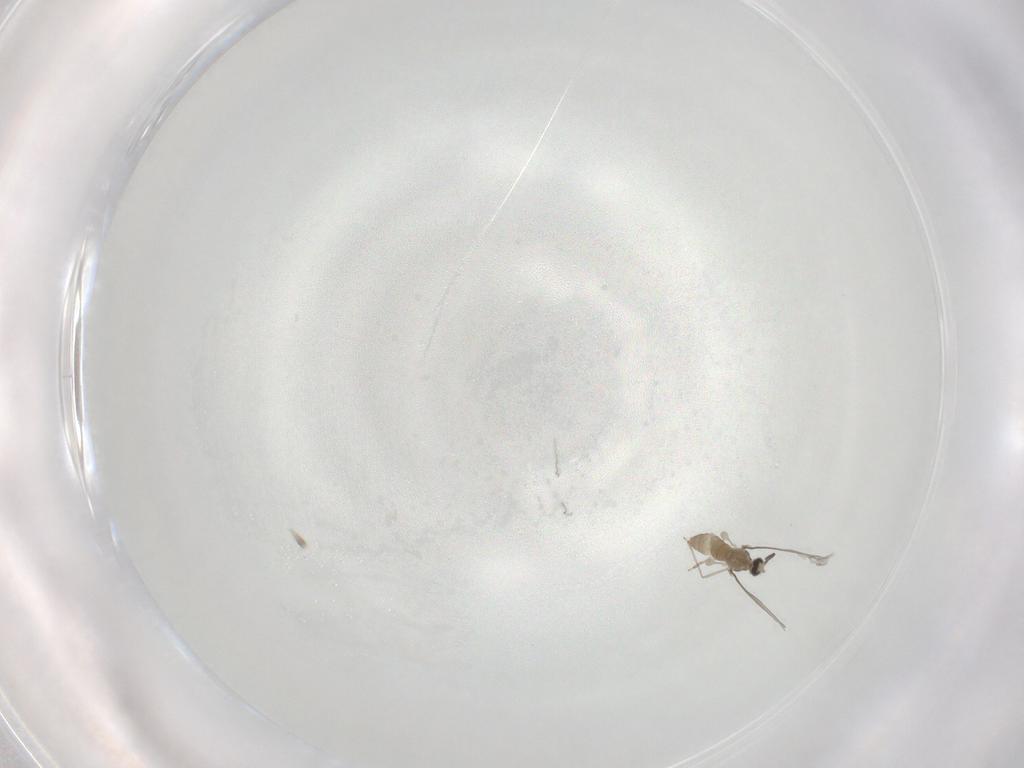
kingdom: Animalia
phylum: Arthropoda
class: Insecta
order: Diptera
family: Cecidomyiidae
